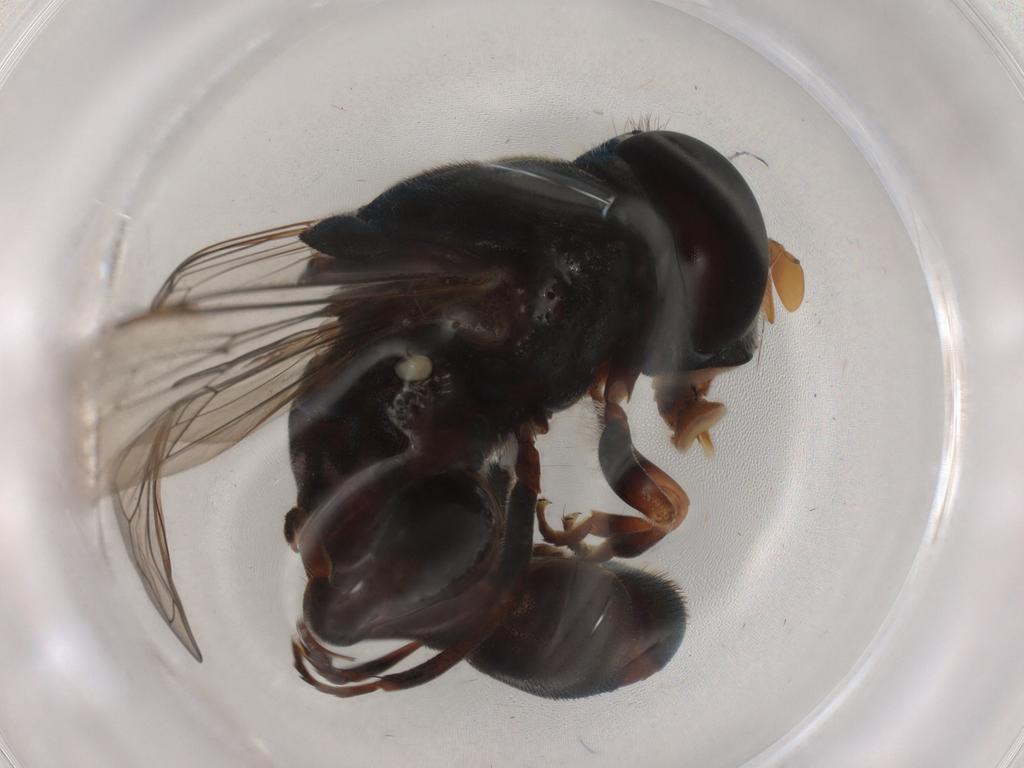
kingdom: Animalia
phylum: Arthropoda
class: Insecta
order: Diptera
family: Syrphidae
